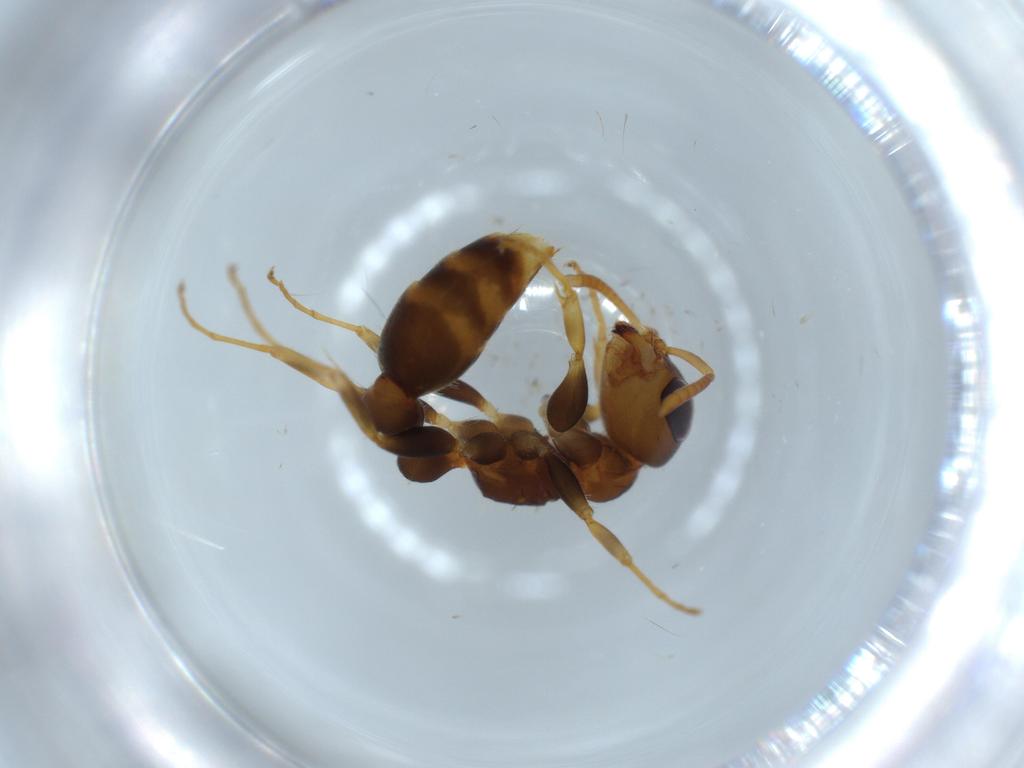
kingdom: Animalia
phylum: Arthropoda
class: Insecta
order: Hymenoptera
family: Formicidae
